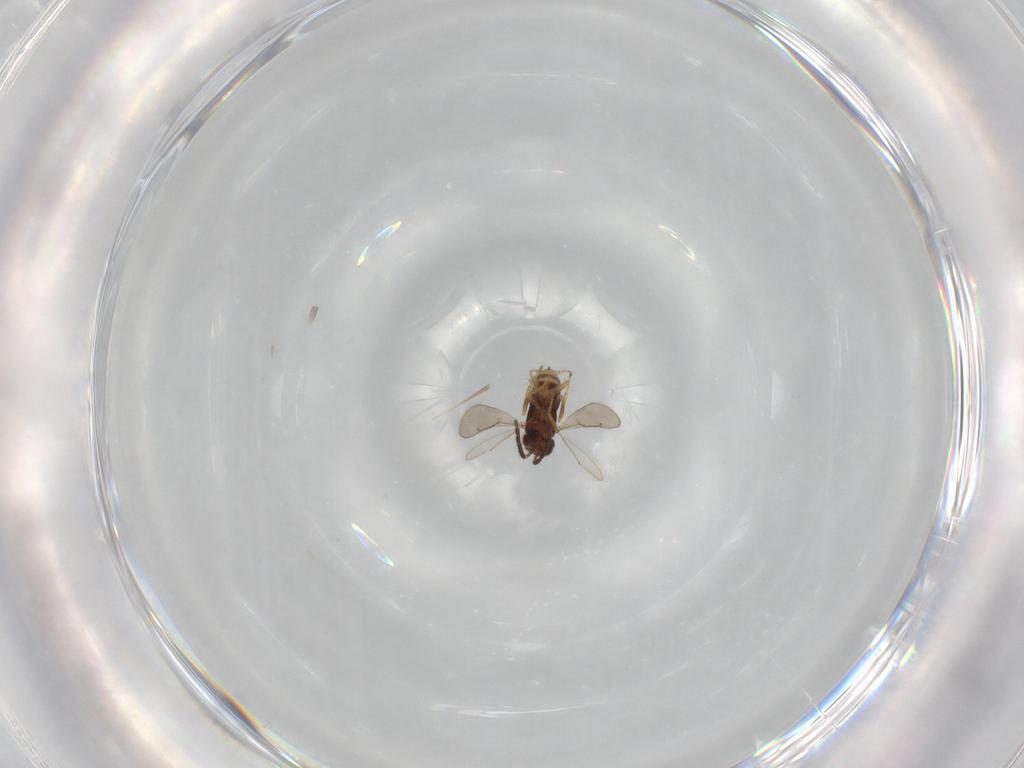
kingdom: Animalia
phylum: Arthropoda
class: Insecta
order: Hymenoptera
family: Aphelinidae
